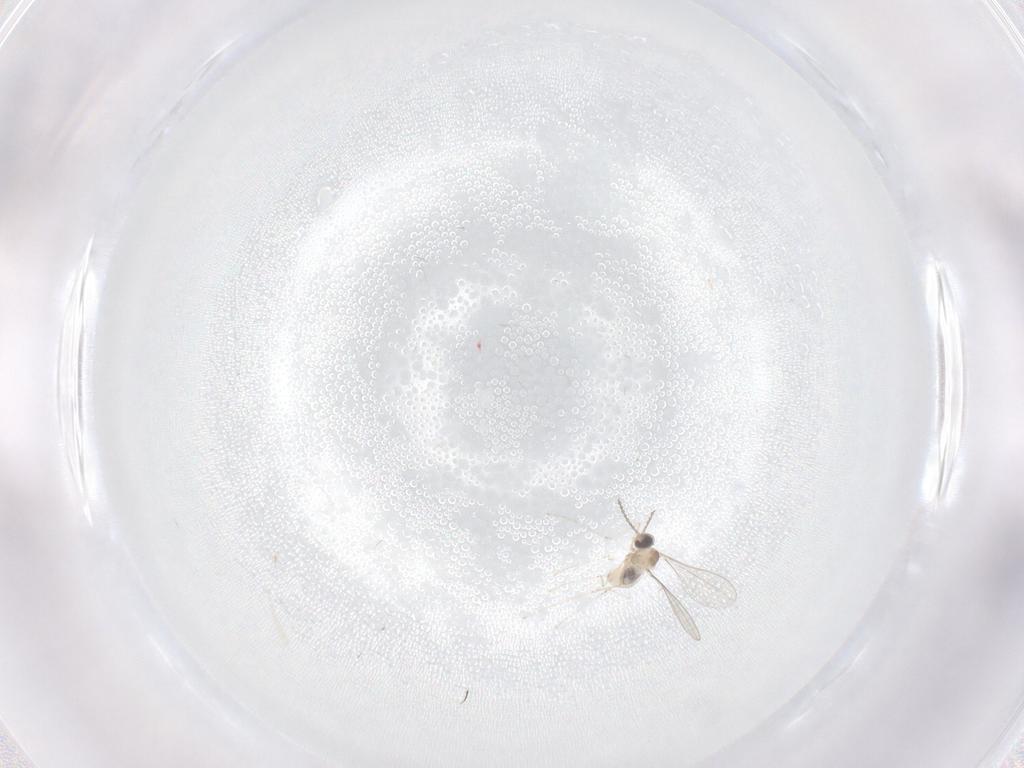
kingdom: Animalia
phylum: Arthropoda
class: Insecta
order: Diptera
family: Cecidomyiidae
